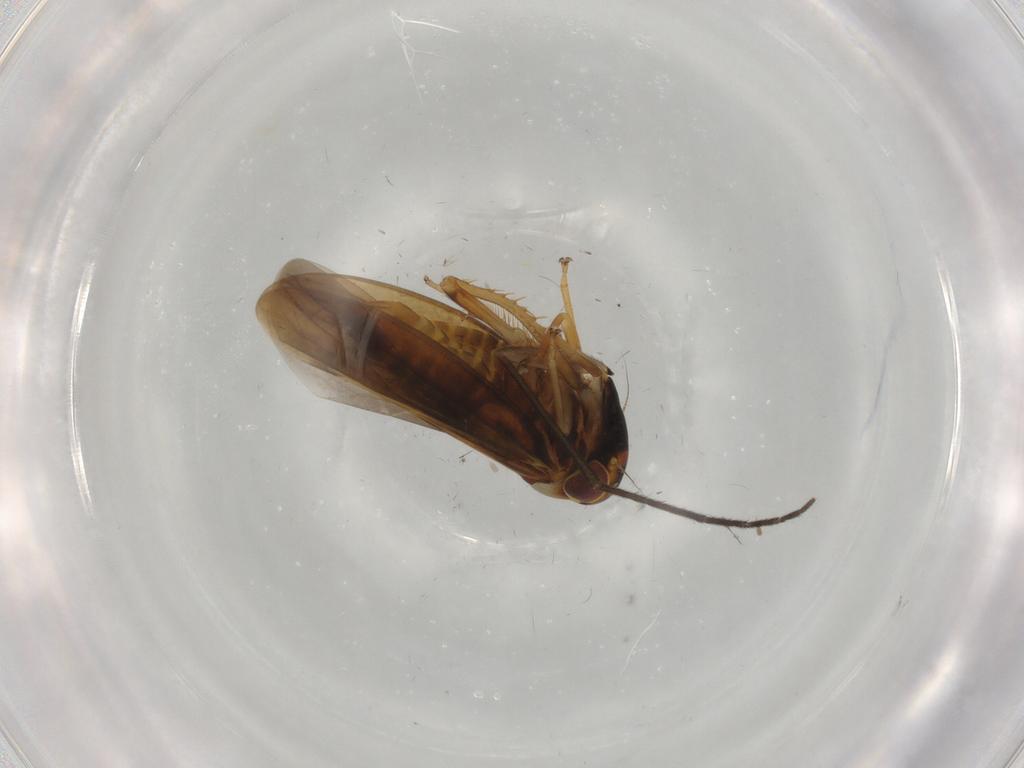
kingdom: Animalia
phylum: Arthropoda
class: Insecta
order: Hemiptera
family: Cicadellidae
